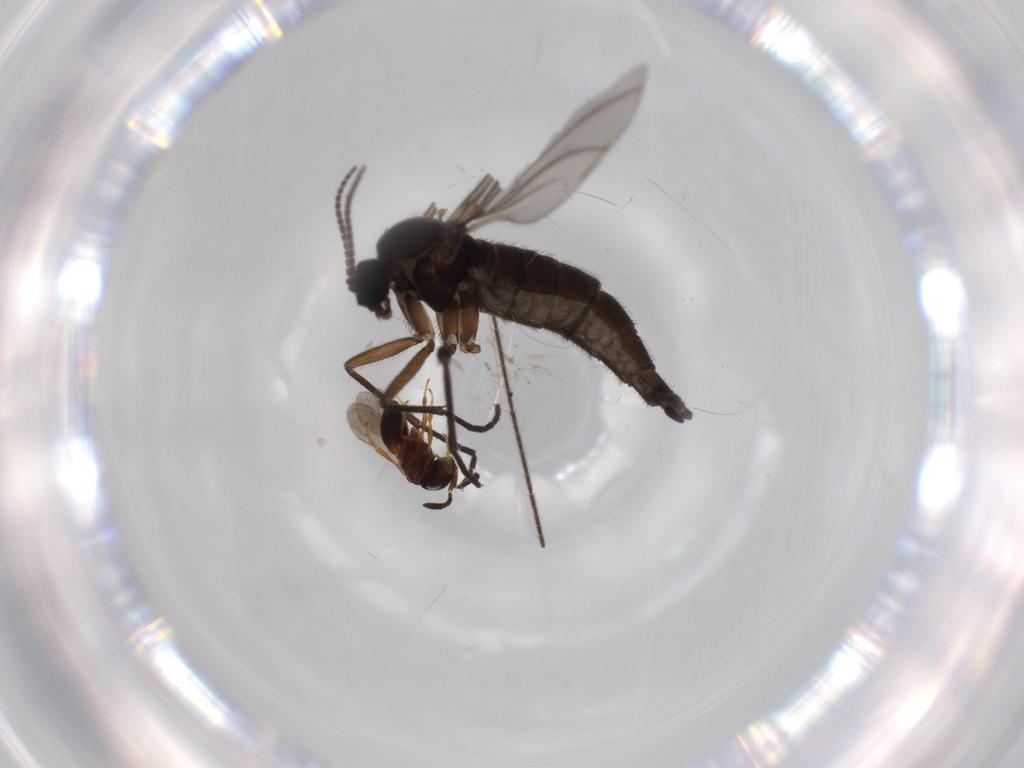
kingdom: Animalia
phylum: Arthropoda
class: Insecta
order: Diptera
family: Sciaridae
